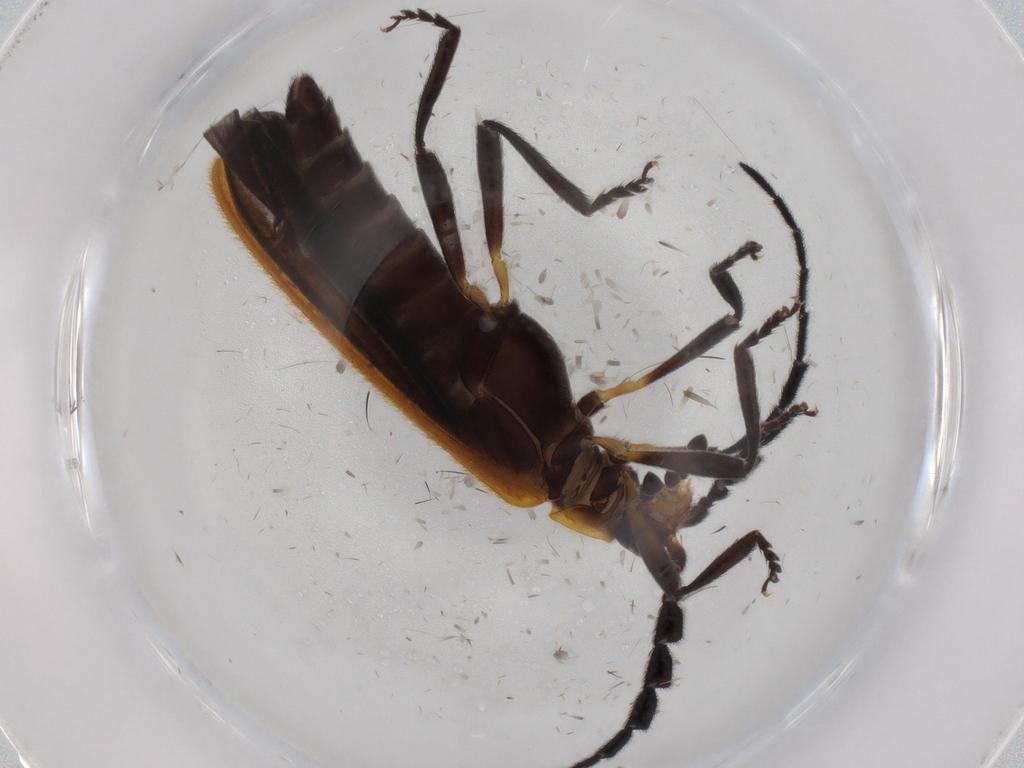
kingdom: Animalia
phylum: Arthropoda
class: Insecta
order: Coleoptera
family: Lycidae
